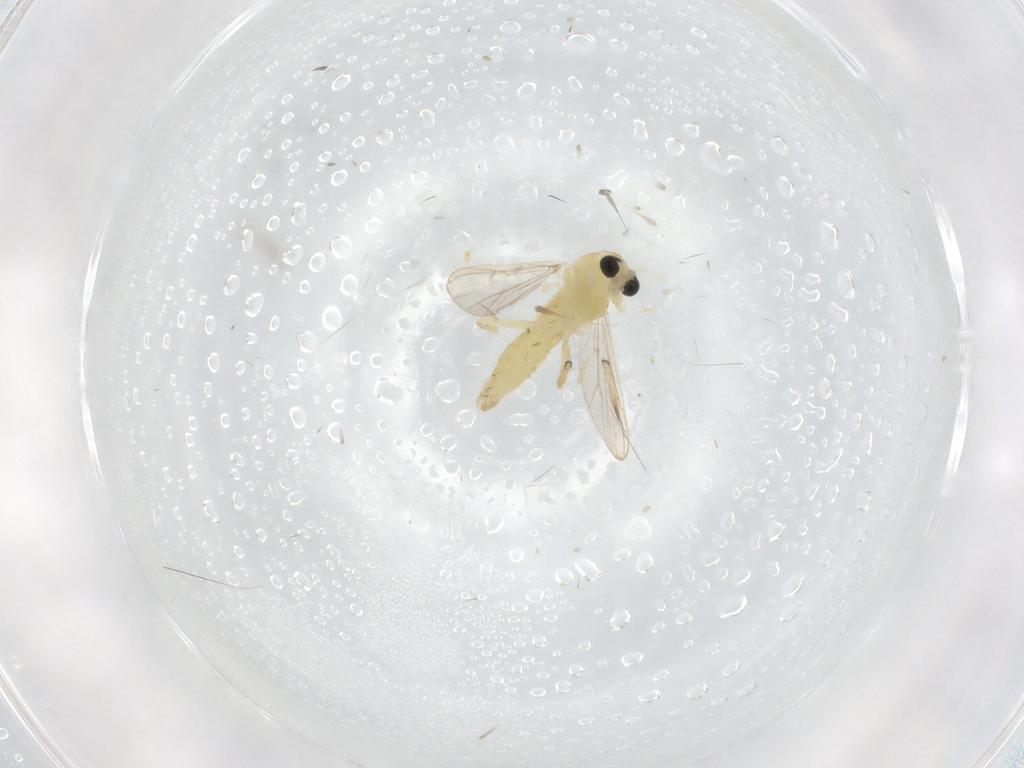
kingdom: Animalia
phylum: Arthropoda
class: Insecta
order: Diptera
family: Chironomidae
